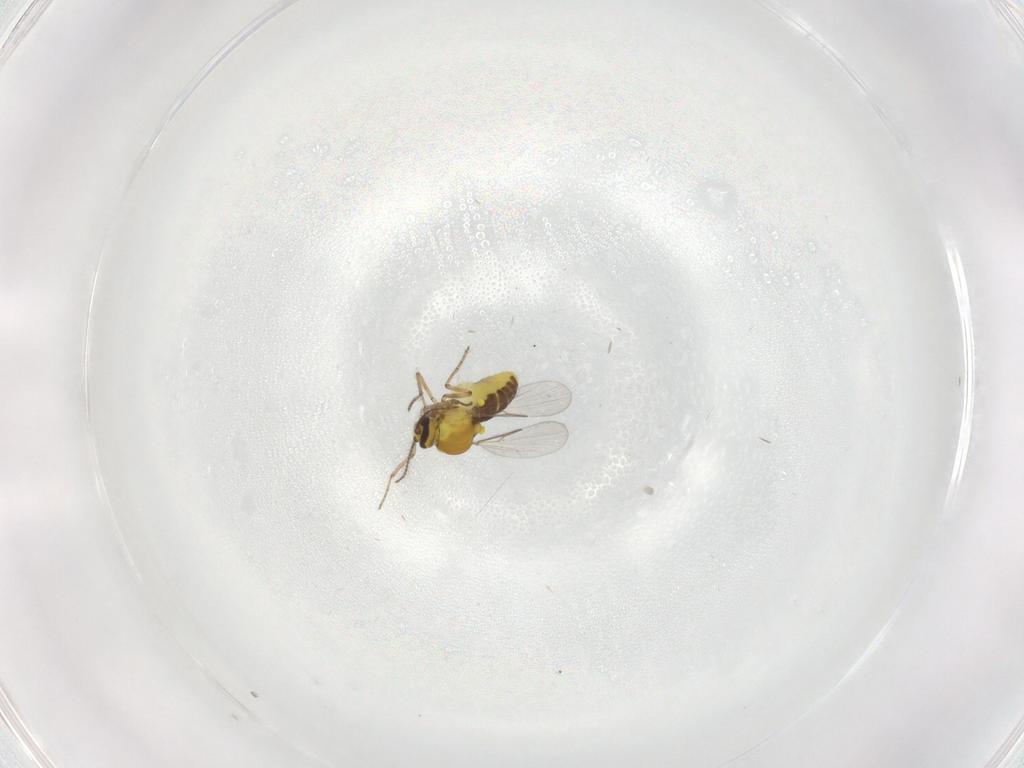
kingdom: Animalia
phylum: Arthropoda
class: Insecta
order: Diptera
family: Ceratopogonidae
